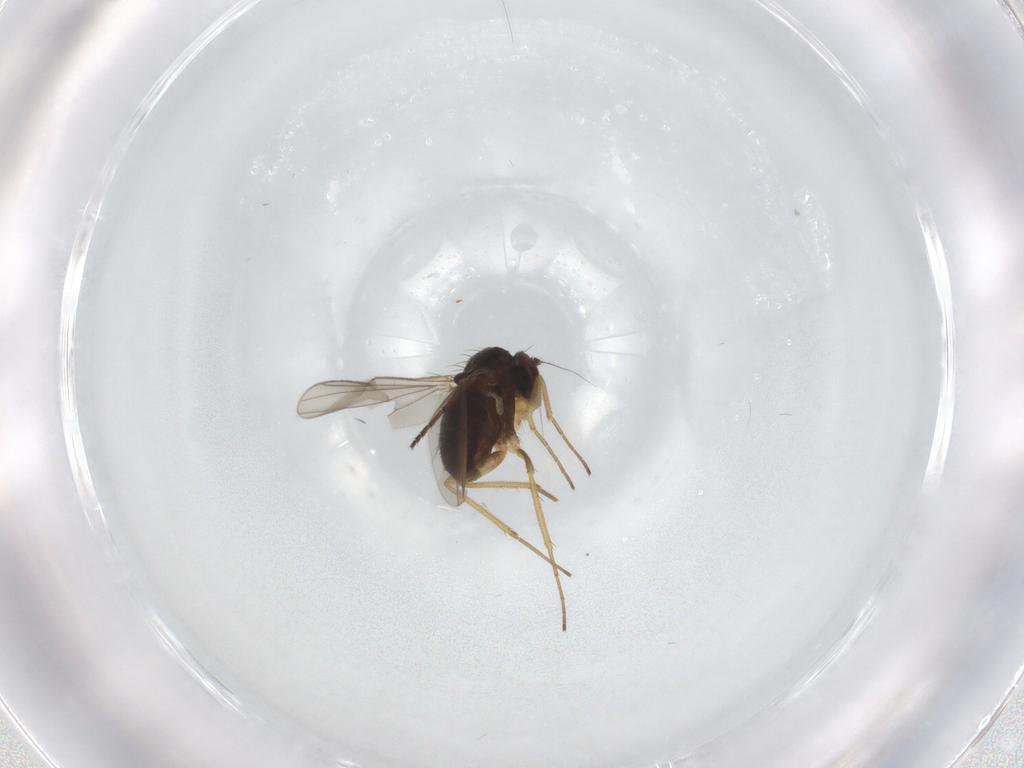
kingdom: Animalia
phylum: Arthropoda
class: Insecta
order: Diptera
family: Dolichopodidae
